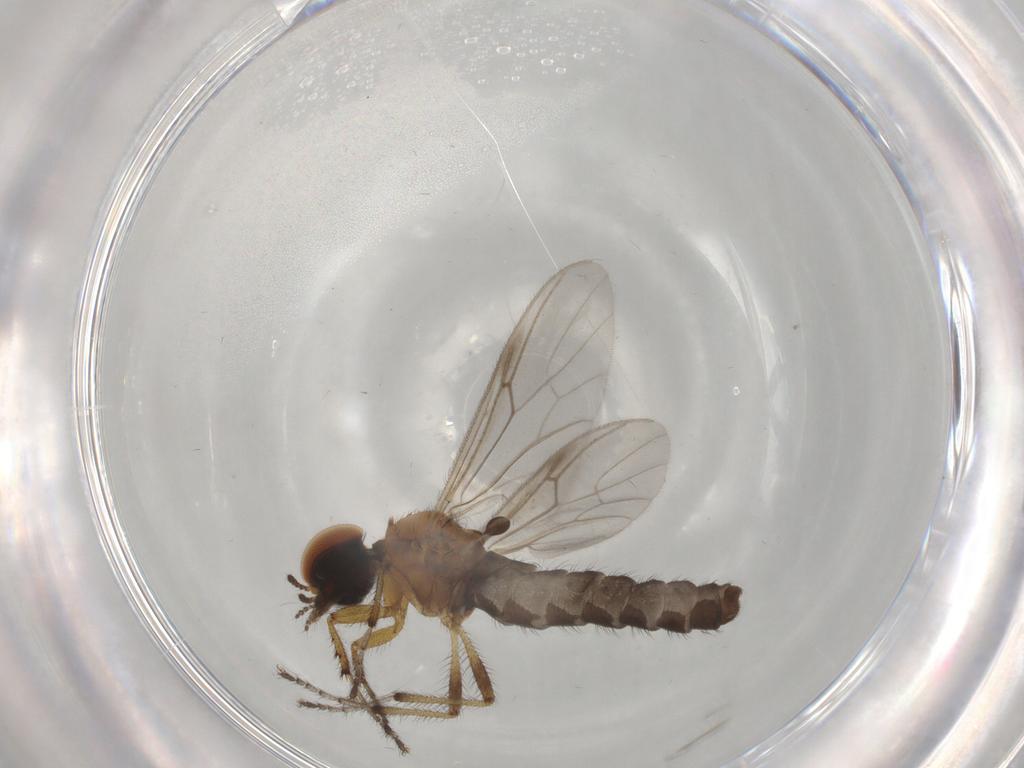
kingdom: Animalia
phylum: Arthropoda
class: Insecta
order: Diptera
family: Bibionidae
